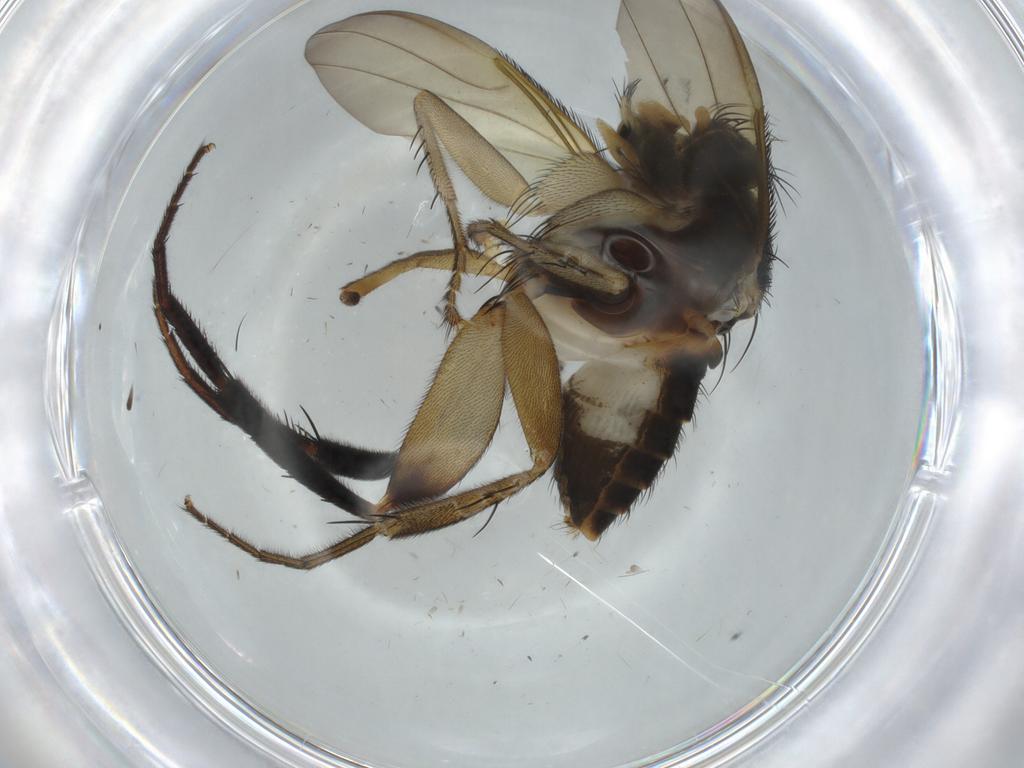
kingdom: Animalia
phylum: Arthropoda
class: Insecta
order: Diptera
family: Phoridae
